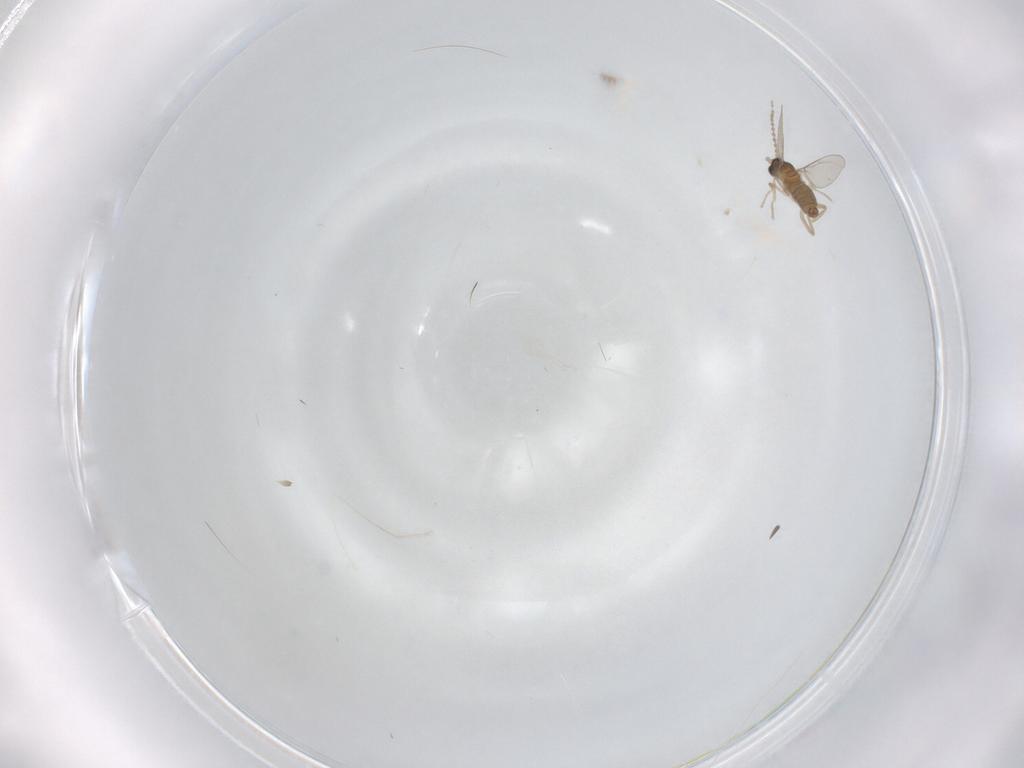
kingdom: Animalia
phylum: Arthropoda
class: Insecta
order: Diptera
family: Cecidomyiidae
